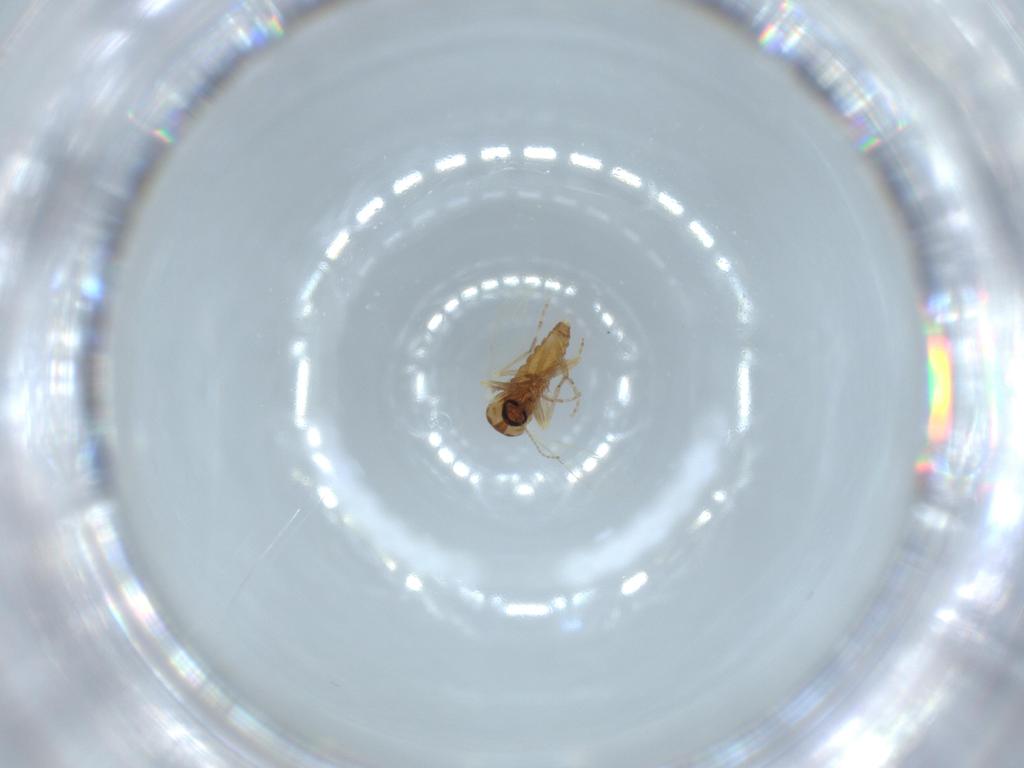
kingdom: Animalia
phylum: Arthropoda
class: Insecta
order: Diptera
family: Ceratopogonidae
